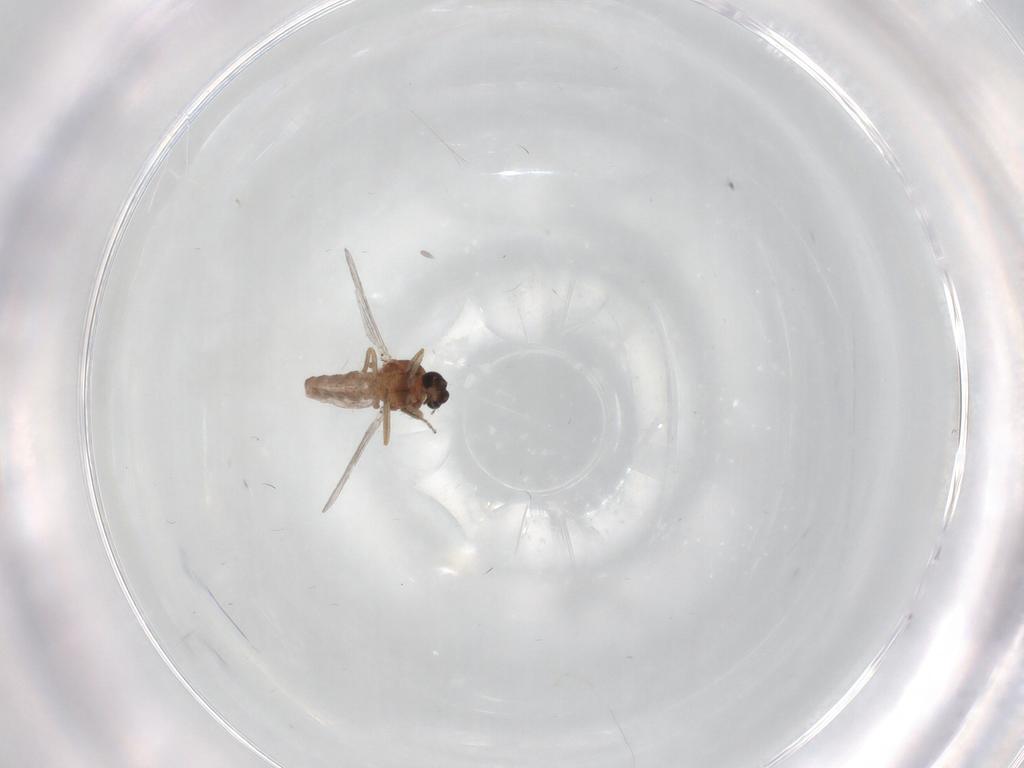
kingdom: Animalia
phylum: Arthropoda
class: Insecta
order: Diptera
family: Ceratopogonidae
